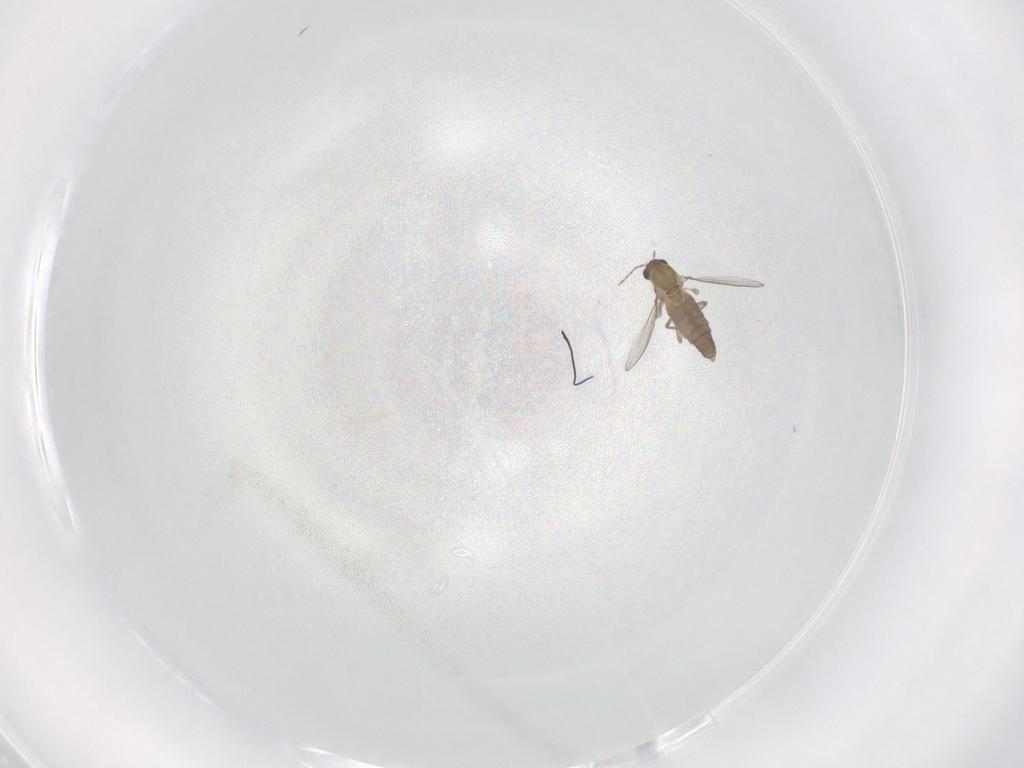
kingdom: Animalia
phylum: Arthropoda
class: Insecta
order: Diptera
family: Chironomidae
